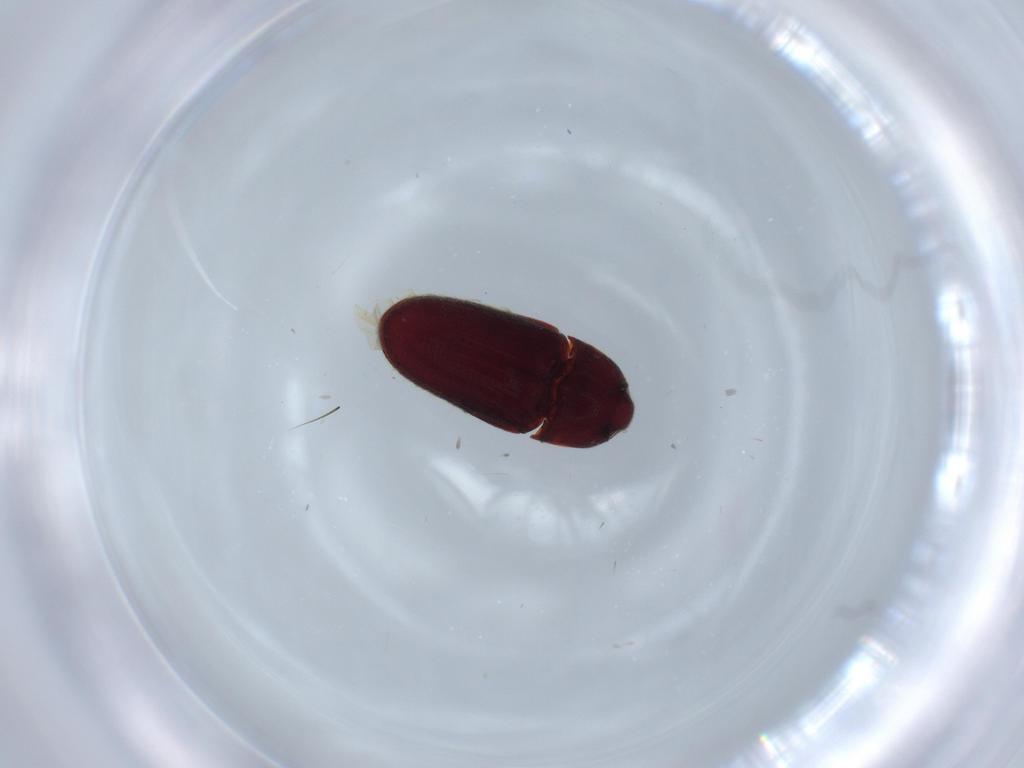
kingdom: Animalia
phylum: Arthropoda
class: Insecta
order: Coleoptera
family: Throscidae
